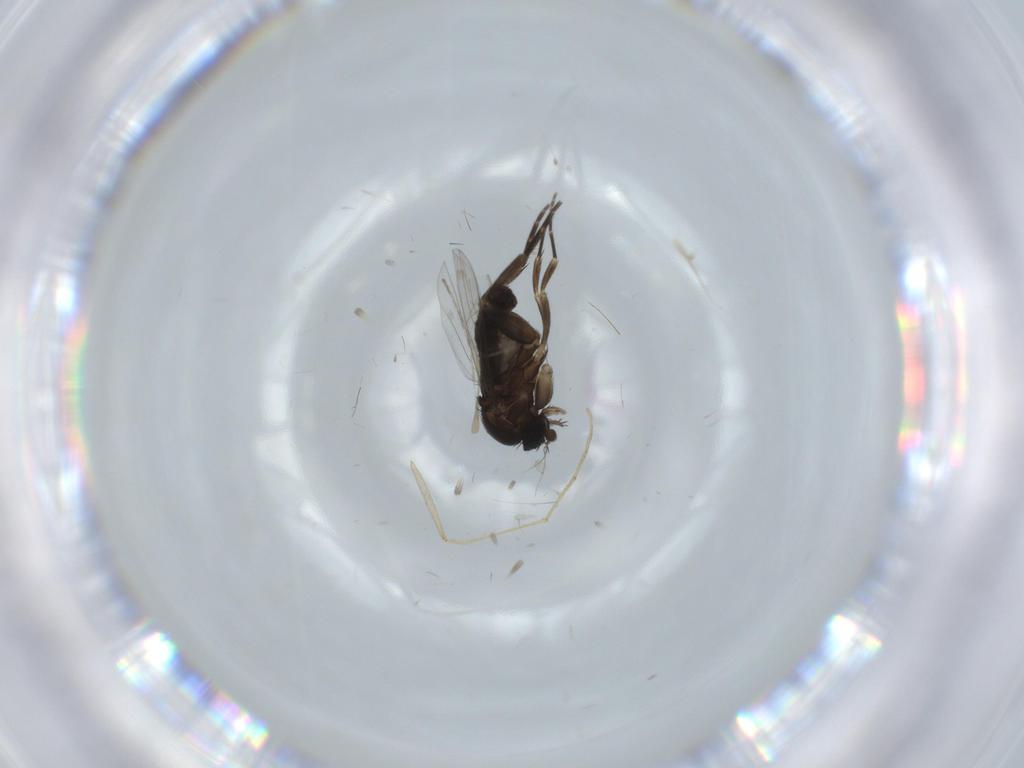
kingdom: Animalia
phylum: Arthropoda
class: Insecta
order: Diptera
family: Phoridae
